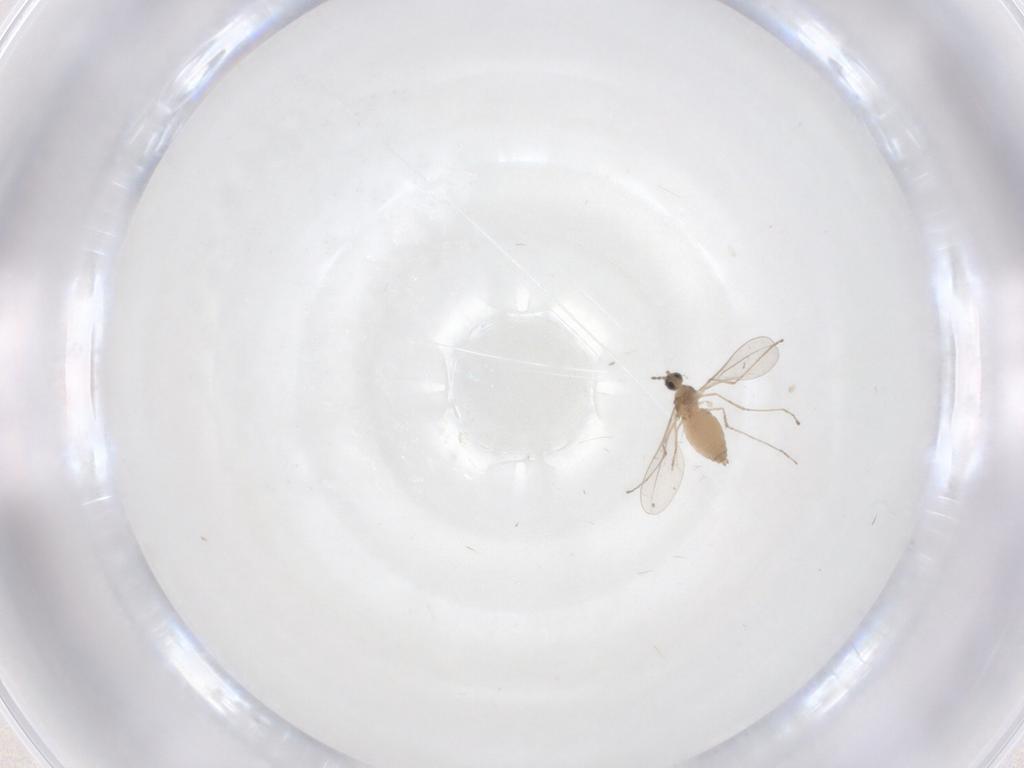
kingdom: Animalia
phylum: Arthropoda
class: Insecta
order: Diptera
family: Cecidomyiidae
